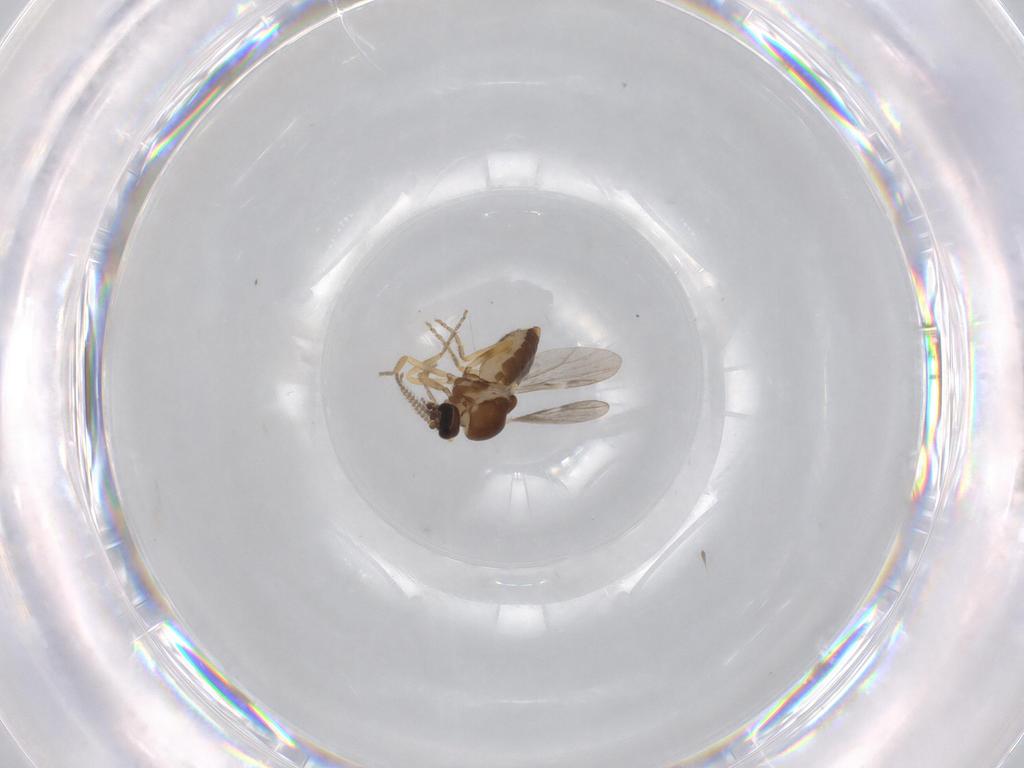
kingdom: Animalia
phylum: Arthropoda
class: Insecta
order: Diptera
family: Ceratopogonidae
